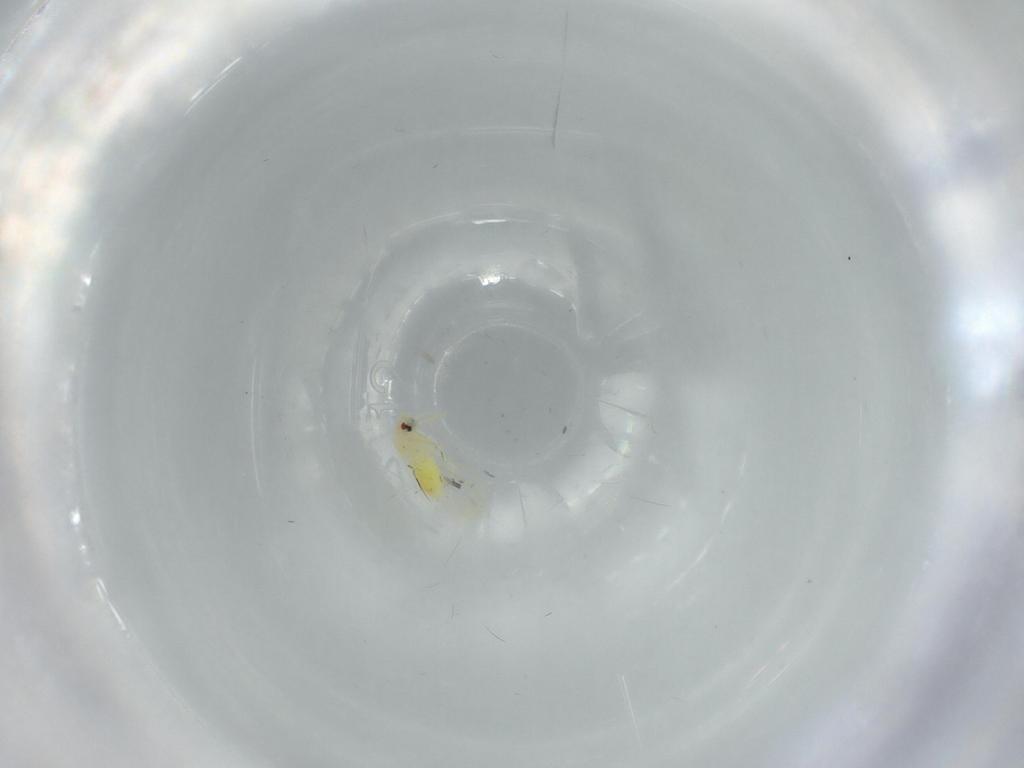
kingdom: Animalia
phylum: Arthropoda
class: Insecta
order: Hemiptera
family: Aleyrodidae
